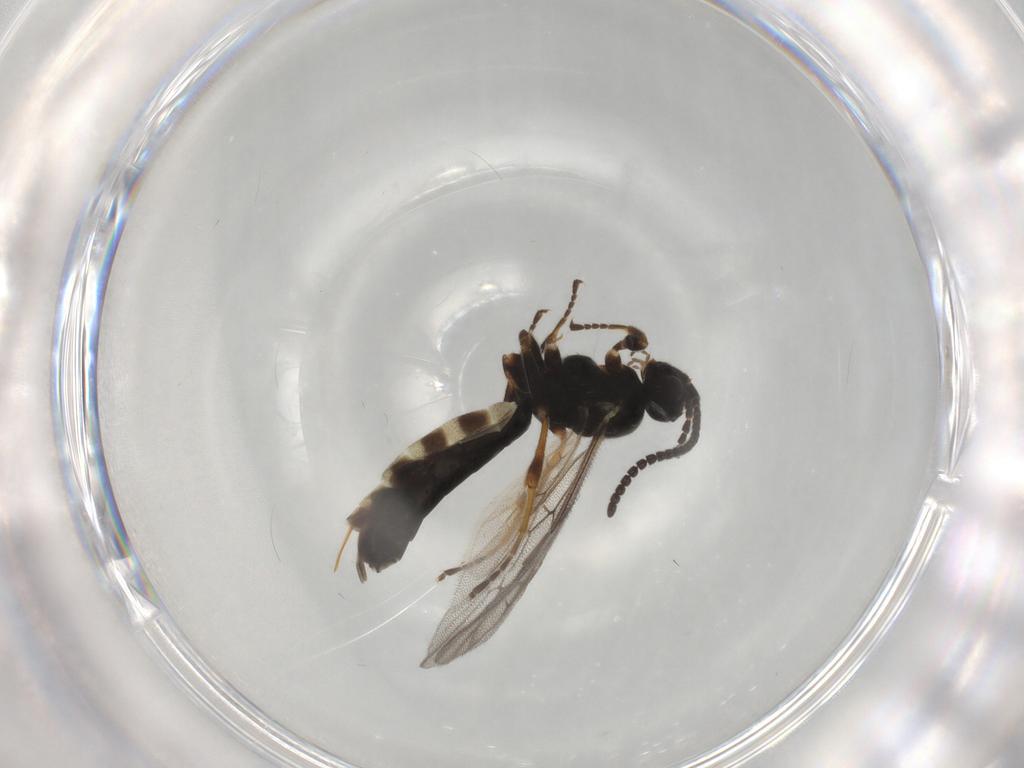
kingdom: Animalia
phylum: Arthropoda
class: Insecta
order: Hymenoptera
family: Ichneumonidae
